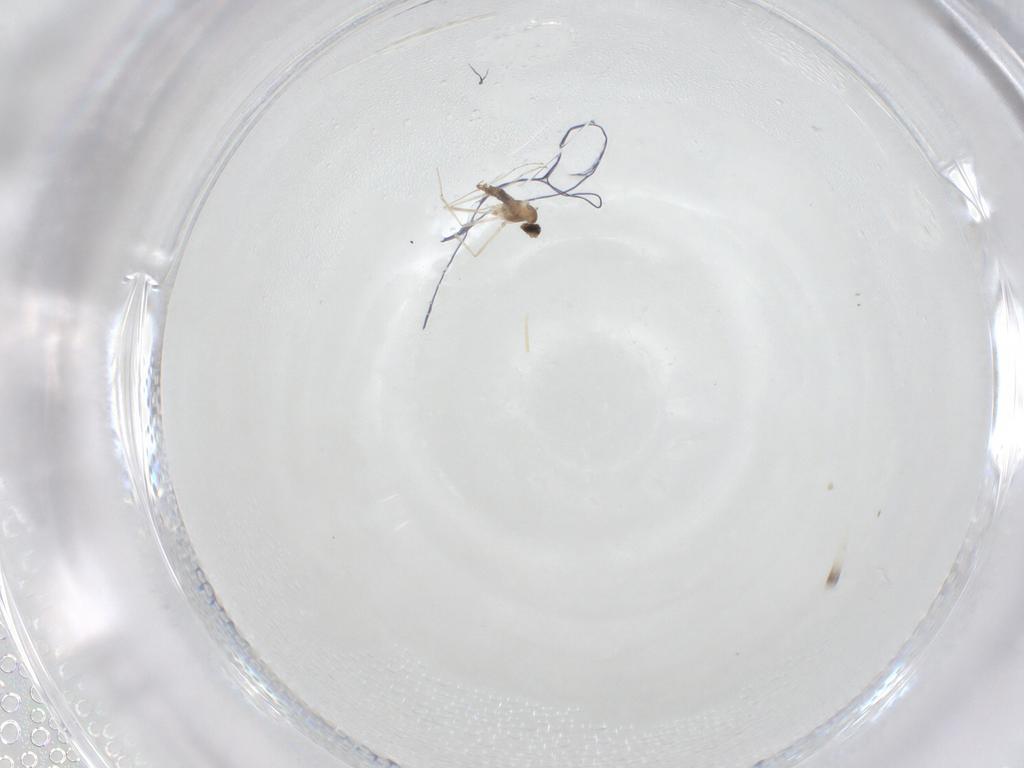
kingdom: Animalia
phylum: Arthropoda
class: Insecta
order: Diptera
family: Cecidomyiidae
